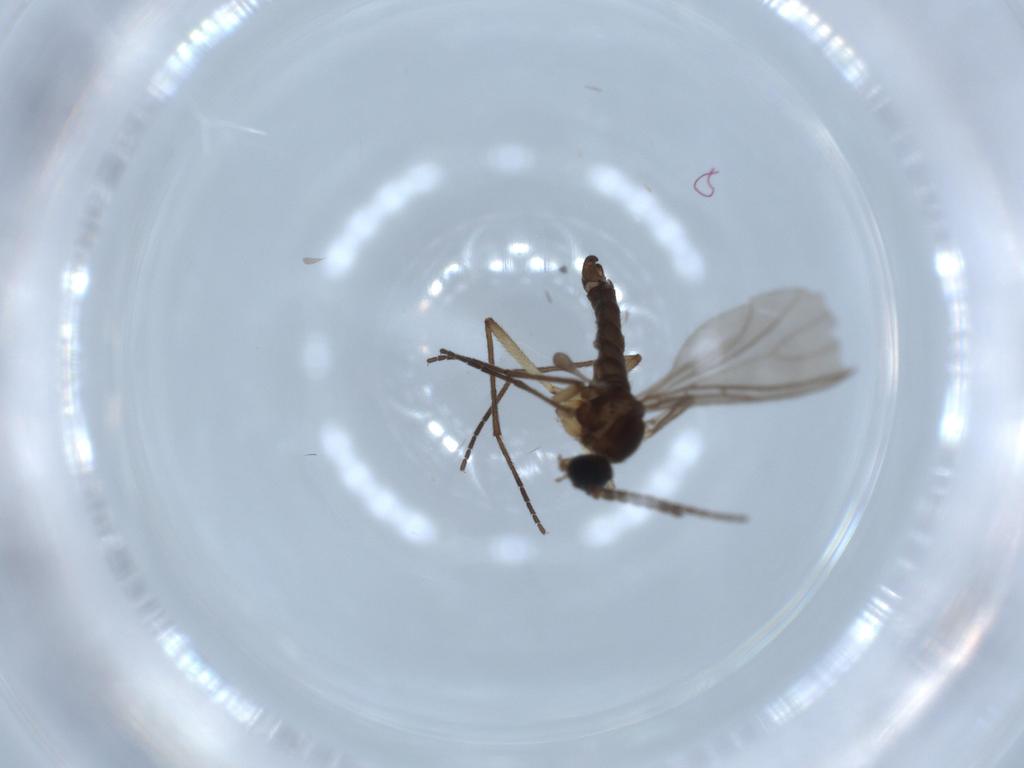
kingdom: Animalia
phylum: Arthropoda
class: Insecta
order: Diptera
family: Sciaridae
